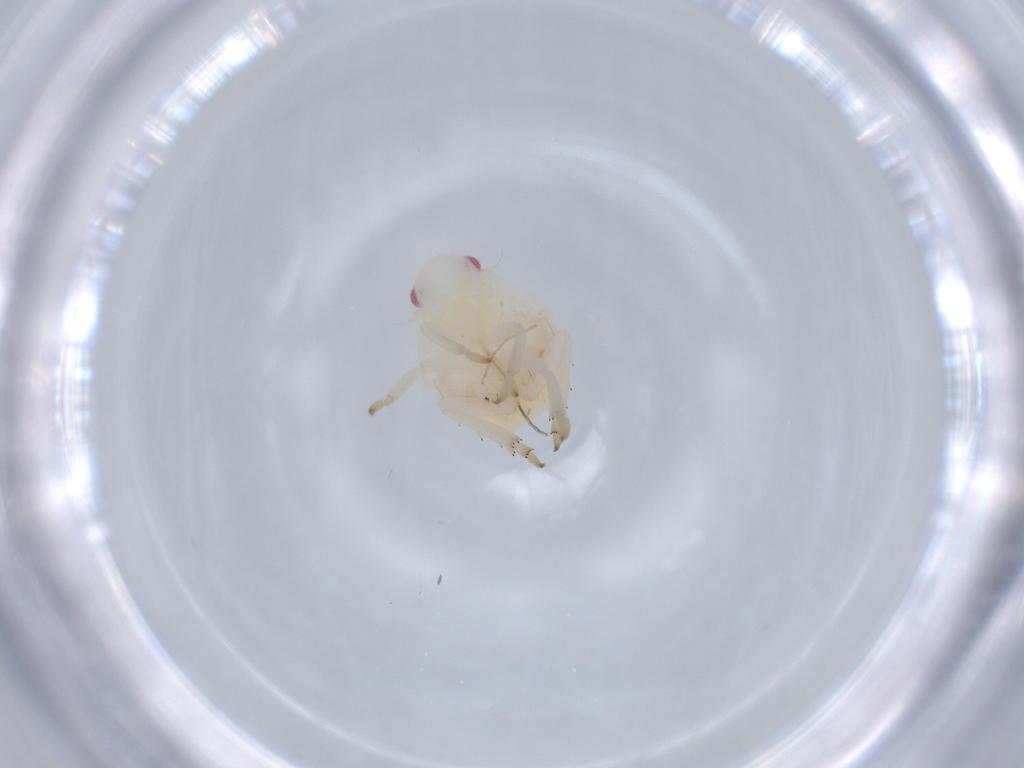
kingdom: Animalia
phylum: Arthropoda
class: Insecta
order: Hemiptera
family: Flatidae
